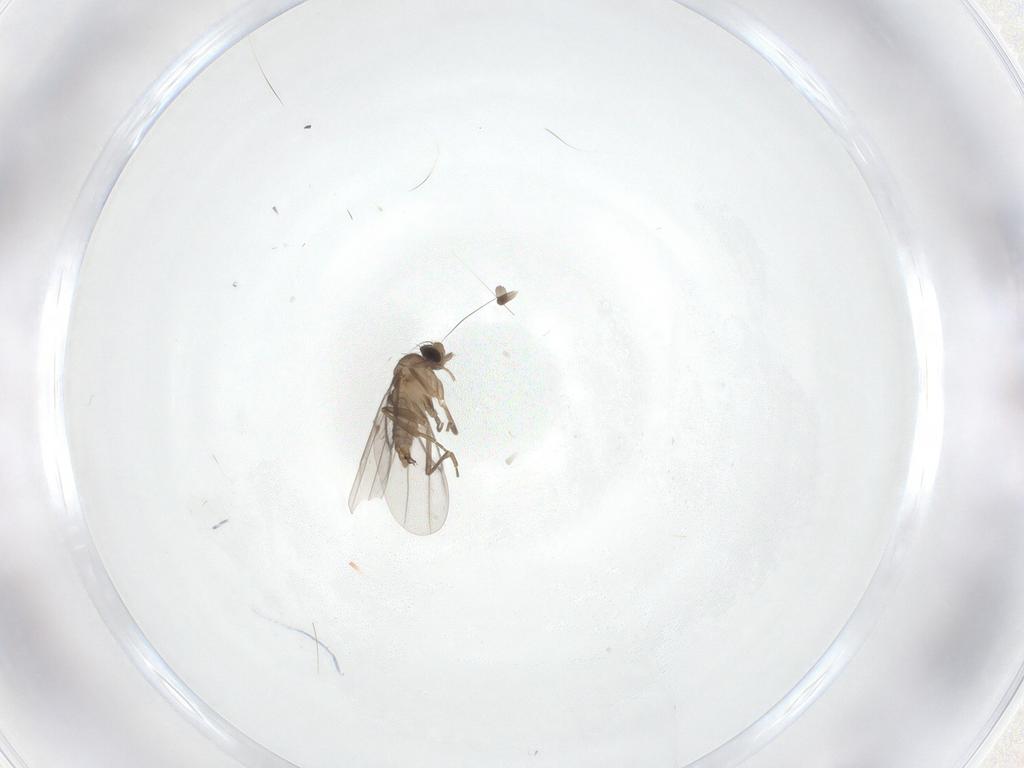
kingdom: Animalia
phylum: Arthropoda
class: Insecta
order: Diptera
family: Chironomidae
